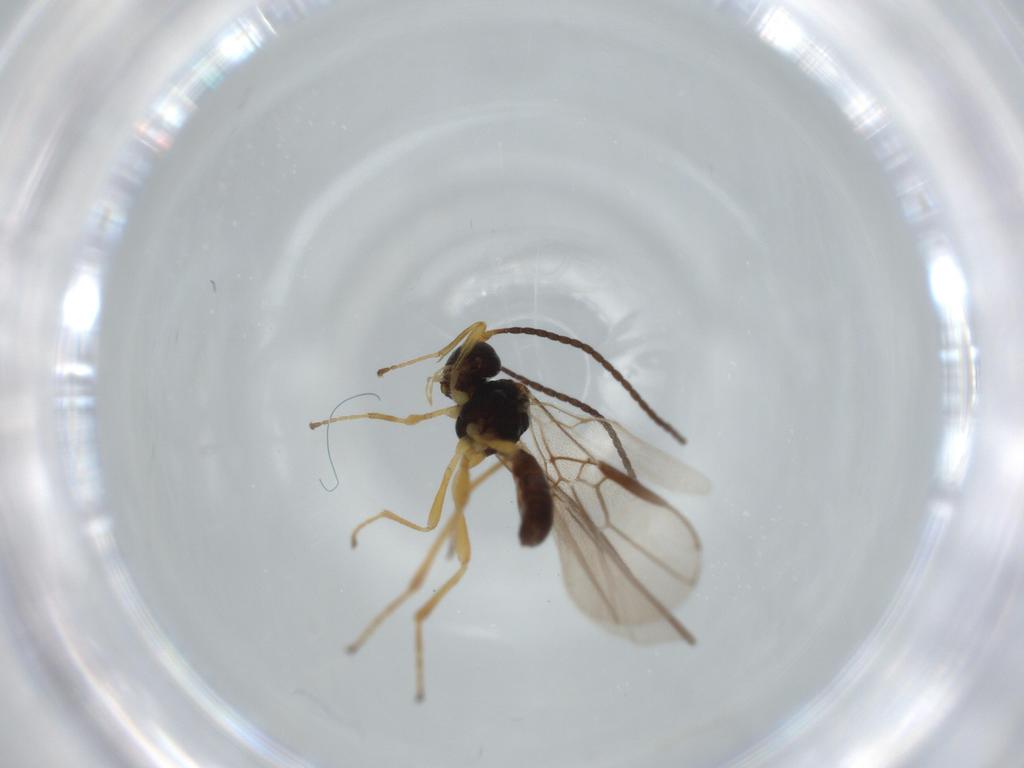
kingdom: Animalia
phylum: Arthropoda
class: Insecta
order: Hymenoptera
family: Braconidae
